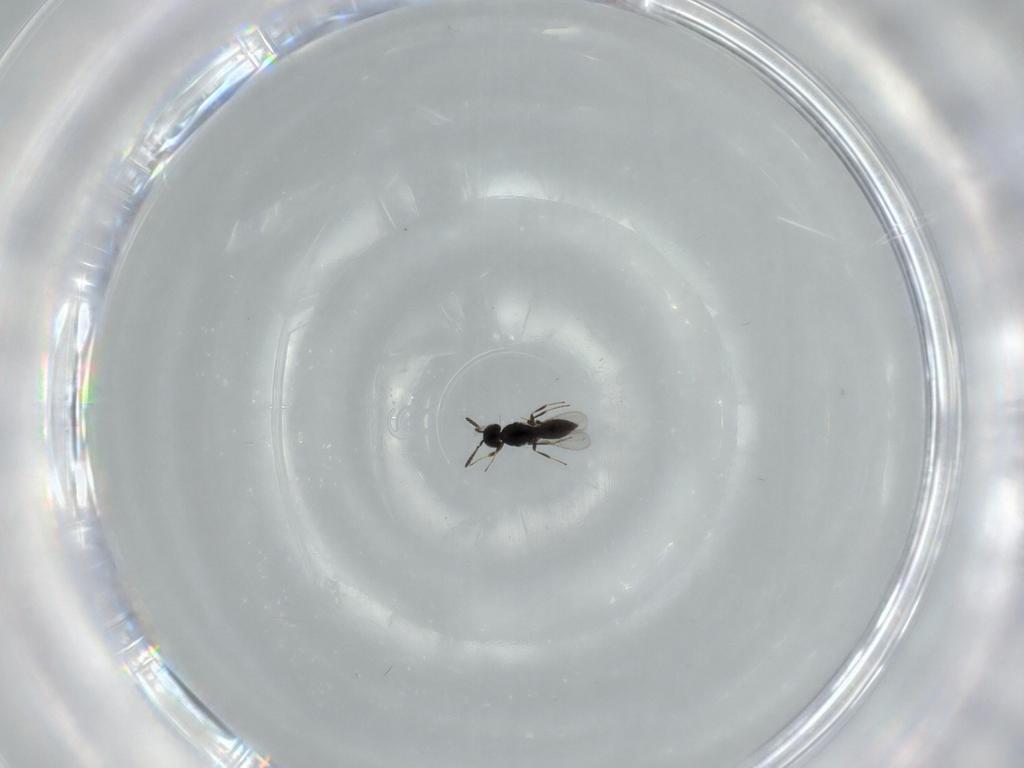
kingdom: Animalia
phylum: Arthropoda
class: Insecta
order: Hymenoptera
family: Scelionidae
